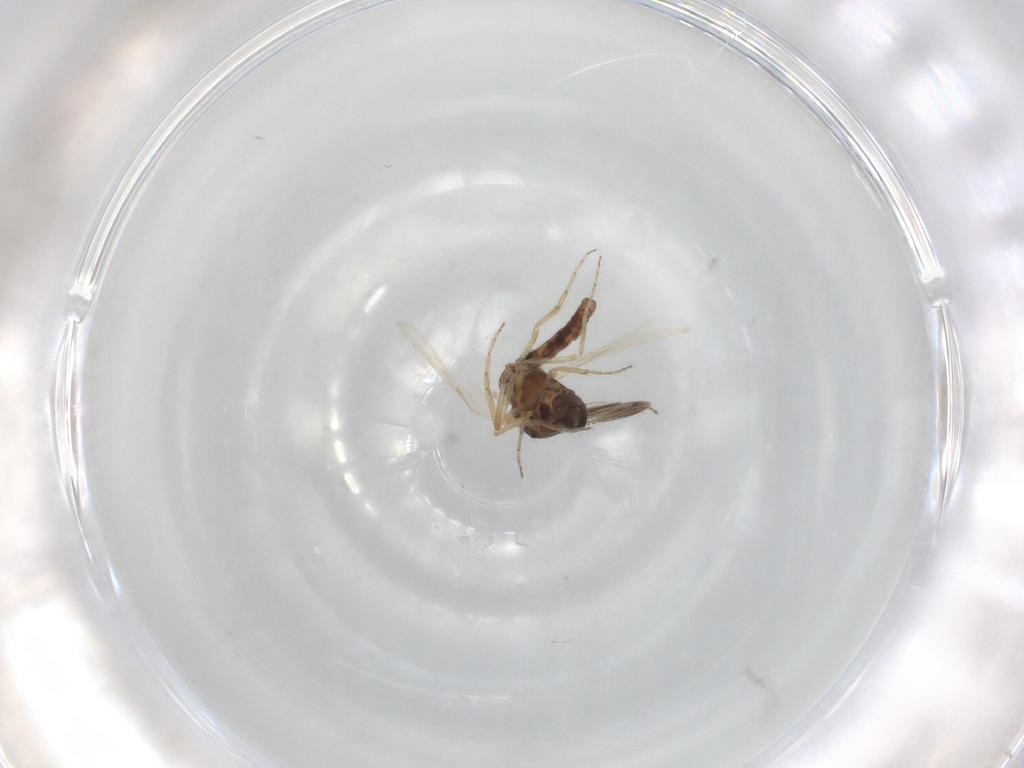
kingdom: Animalia
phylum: Arthropoda
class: Insecta
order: Diptera
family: Ceratopogonidae
